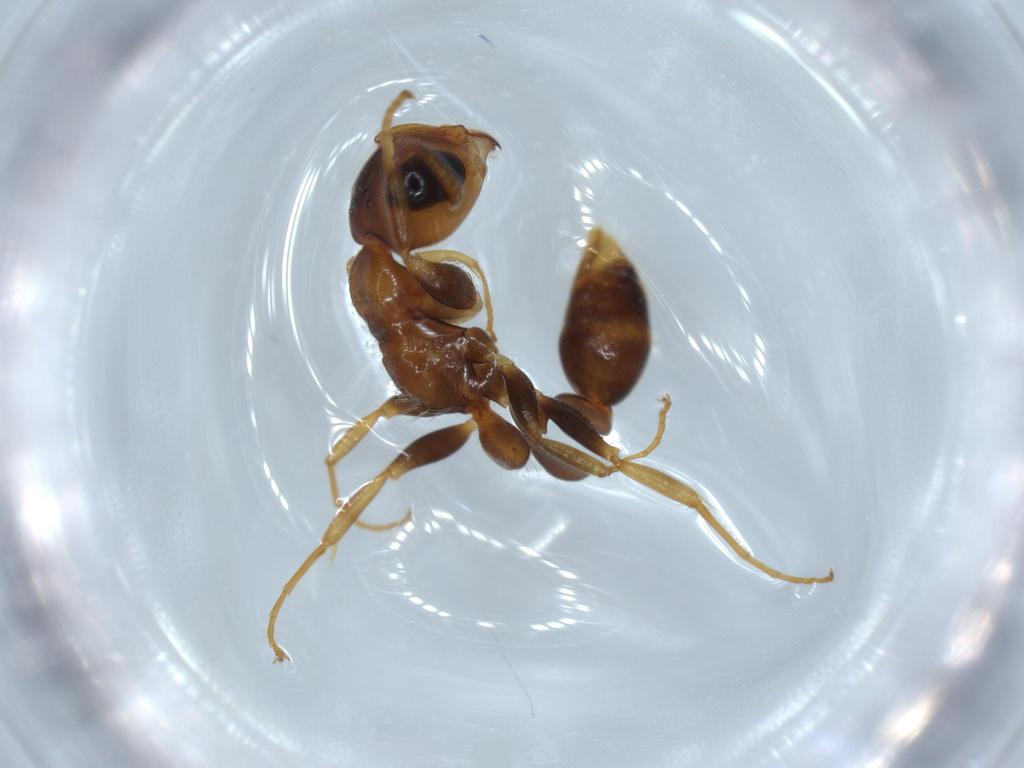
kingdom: Animalia
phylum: Arthropoda
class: Insecta
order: Hymenoptera
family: Formicidae
